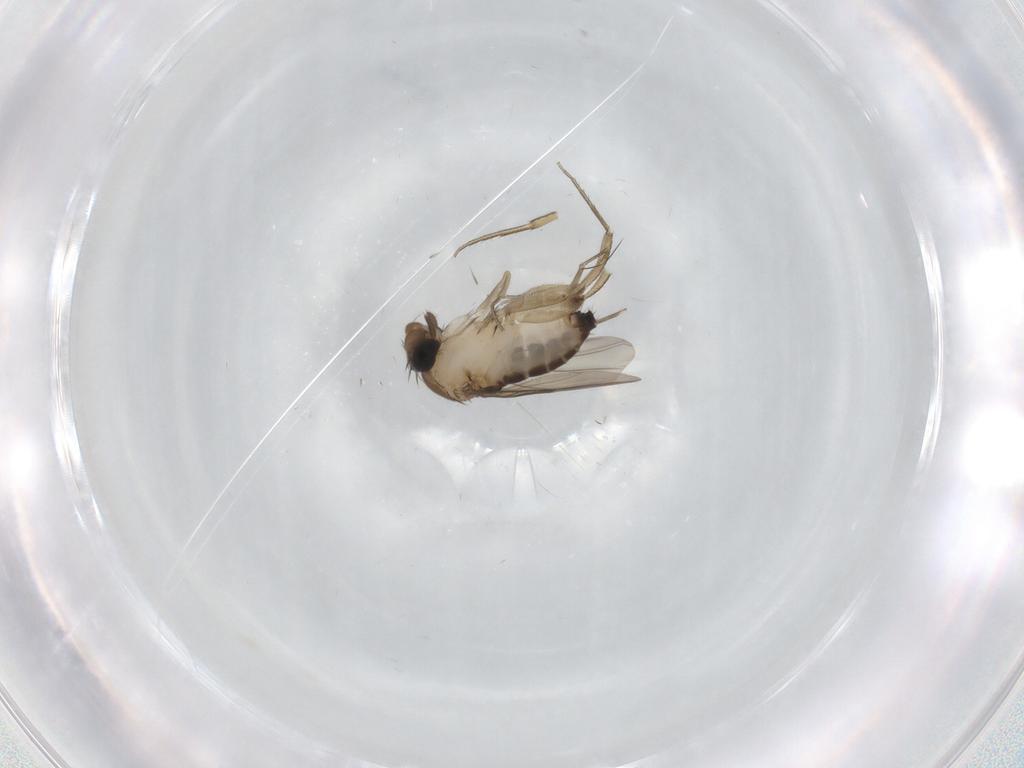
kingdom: Animalia
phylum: Arthropoda
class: Insecta
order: Diptera
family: Phoridae
